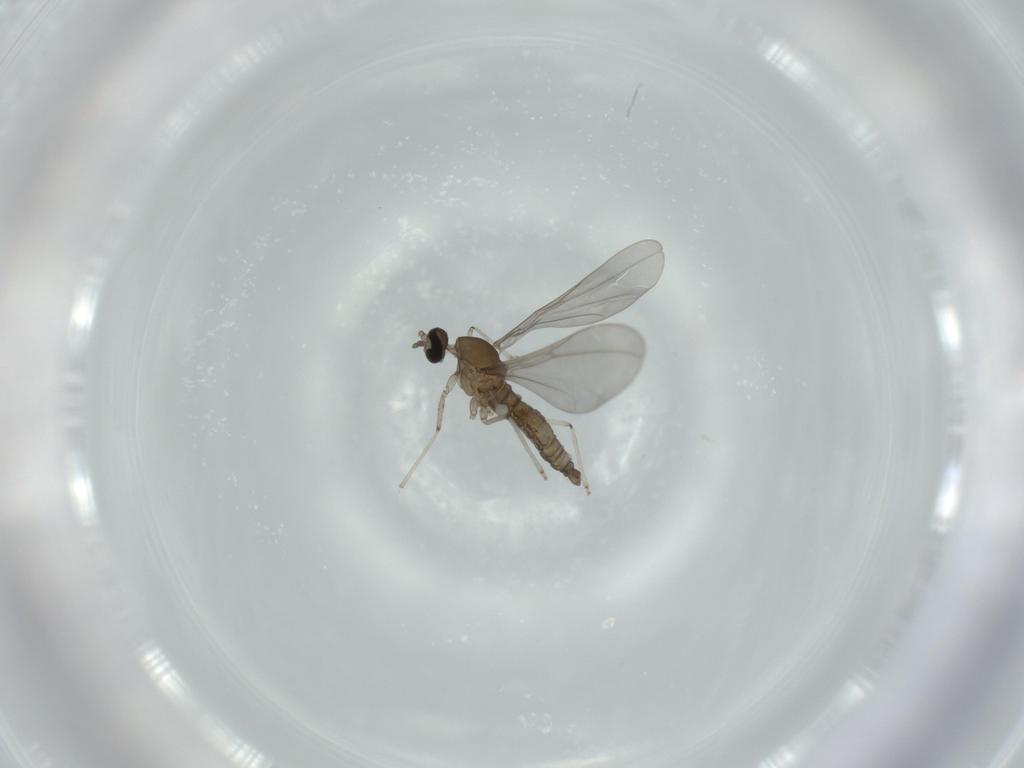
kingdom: Animalia
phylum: Arthropoda
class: Insecta
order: Diptera
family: Cecidomyiidae
